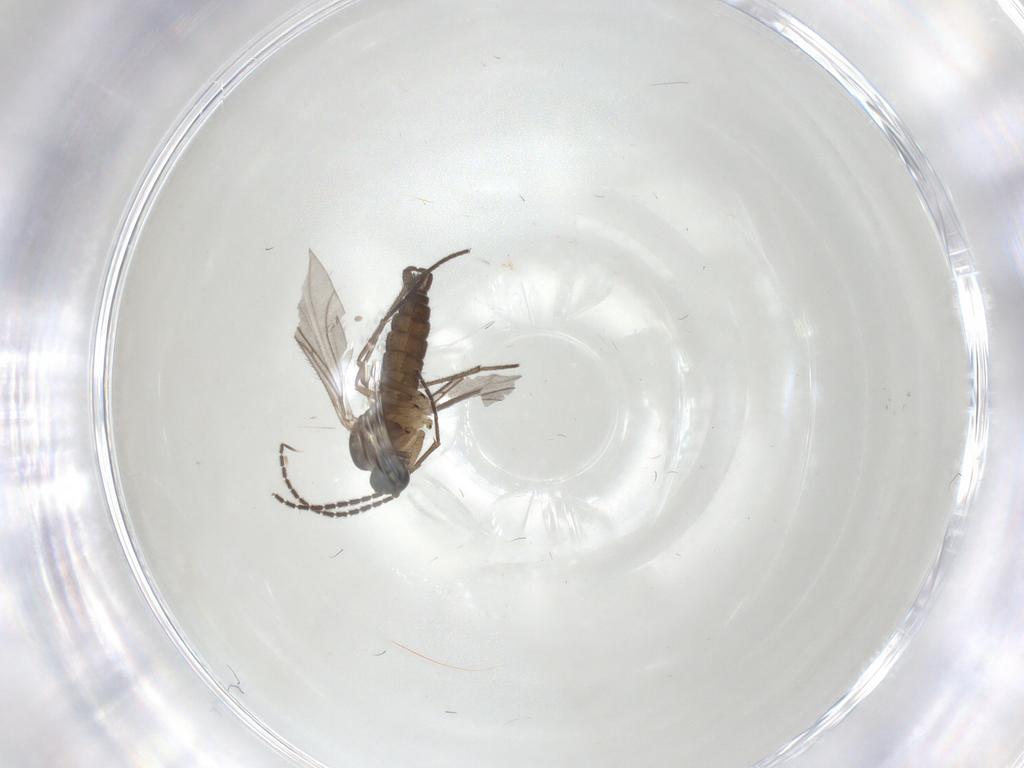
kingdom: Animalia
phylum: Arthropoda
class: Insecta
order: Diptera
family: Sciaridae
